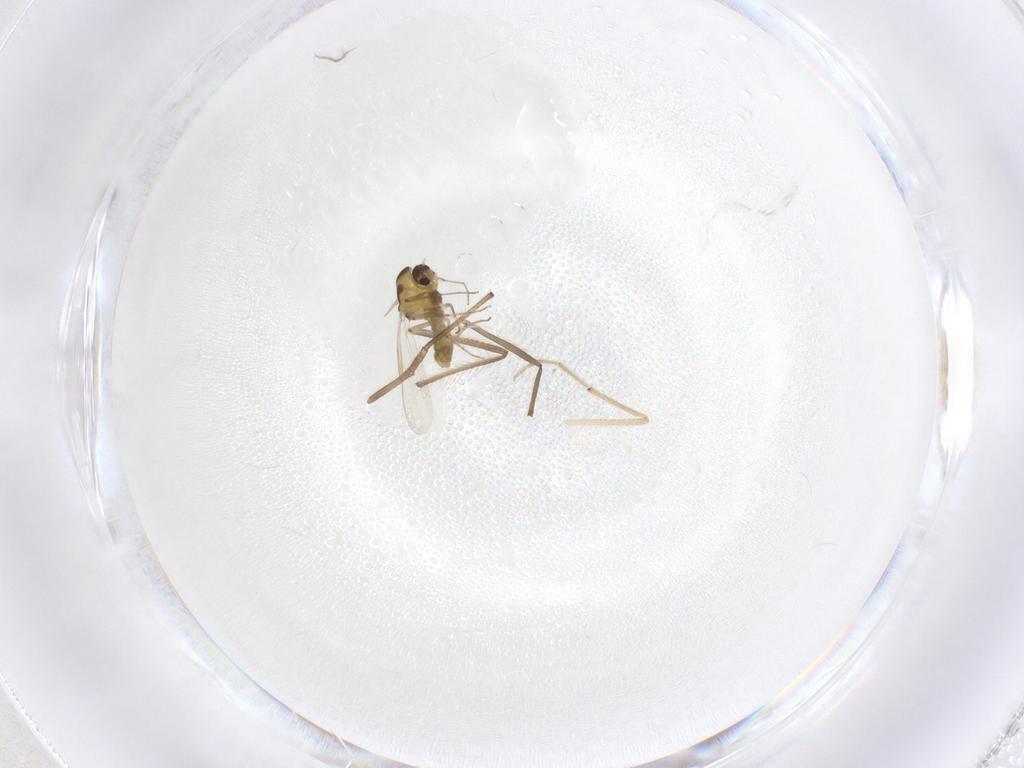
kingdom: Animalia
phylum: Arthropoda
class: Insecta
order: Diptera
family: Chironomidae
